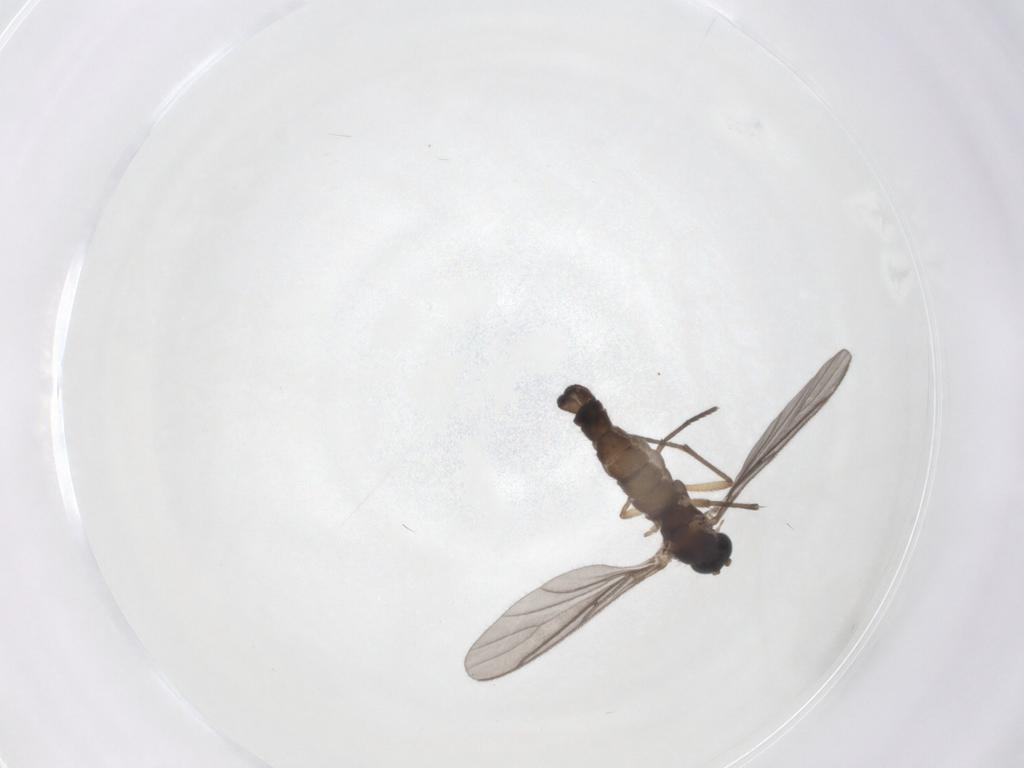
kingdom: Animalia
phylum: Arthropoda
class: Insecta
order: Diptera
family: Sciaridae
